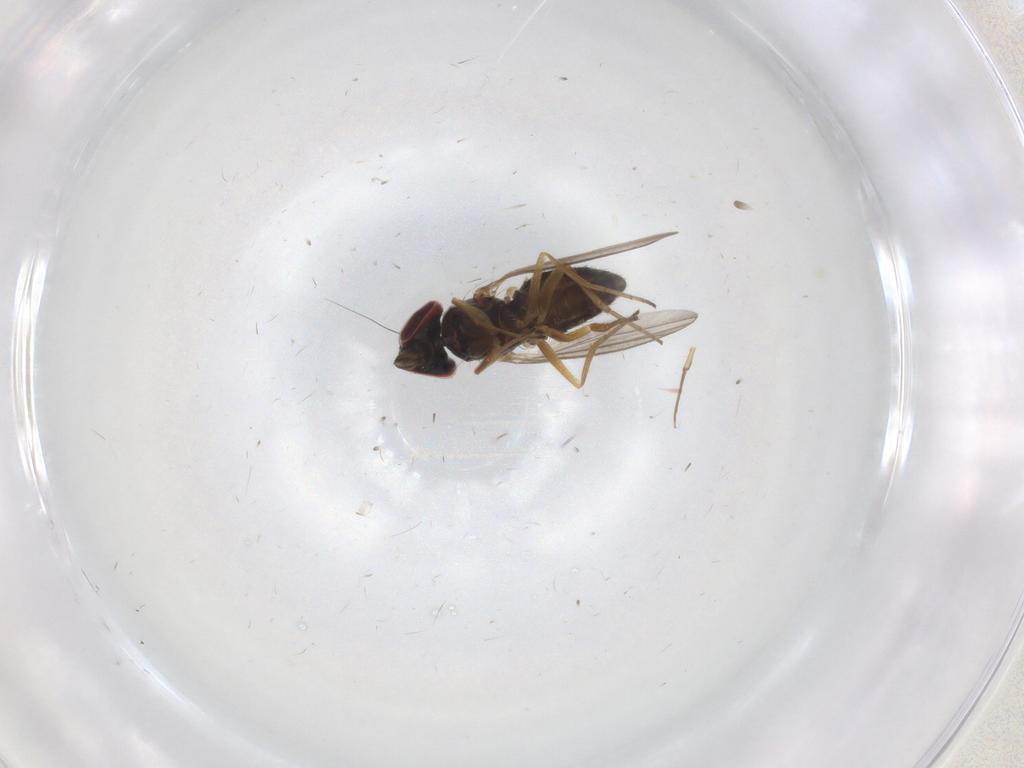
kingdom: Animalia
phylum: Arthropoda
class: Insecta
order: Diptera
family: Dolichopodidae
